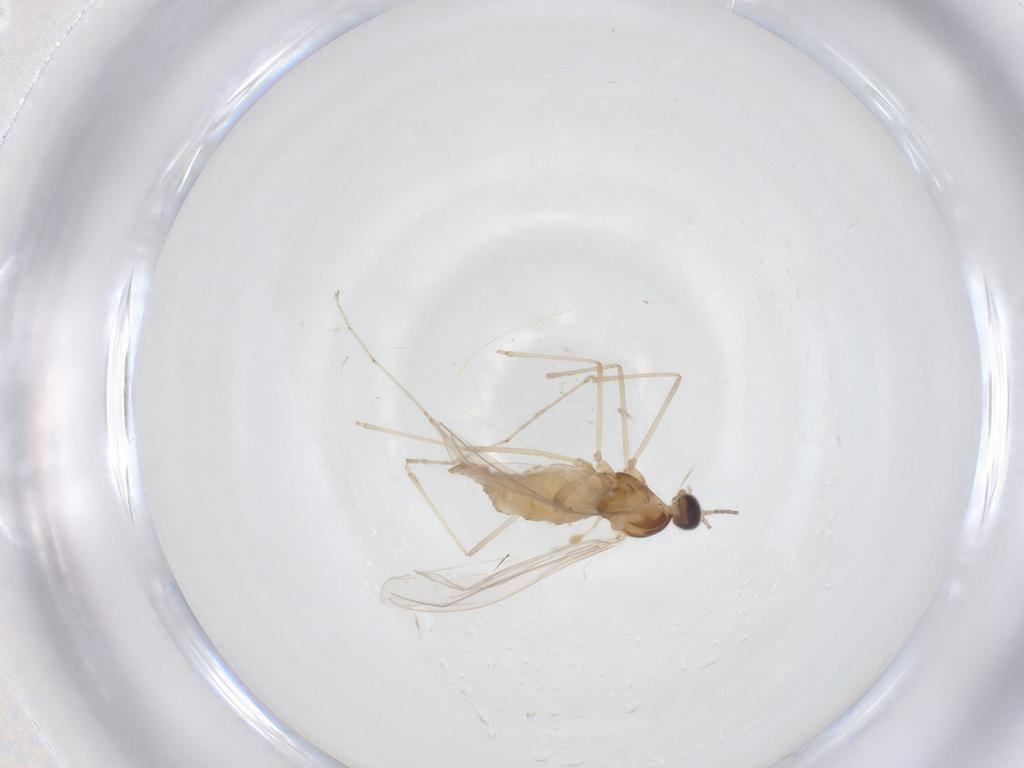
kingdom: Animalia
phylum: Arthropoda
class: Insecta
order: Diptera
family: Cecidomyiidae
